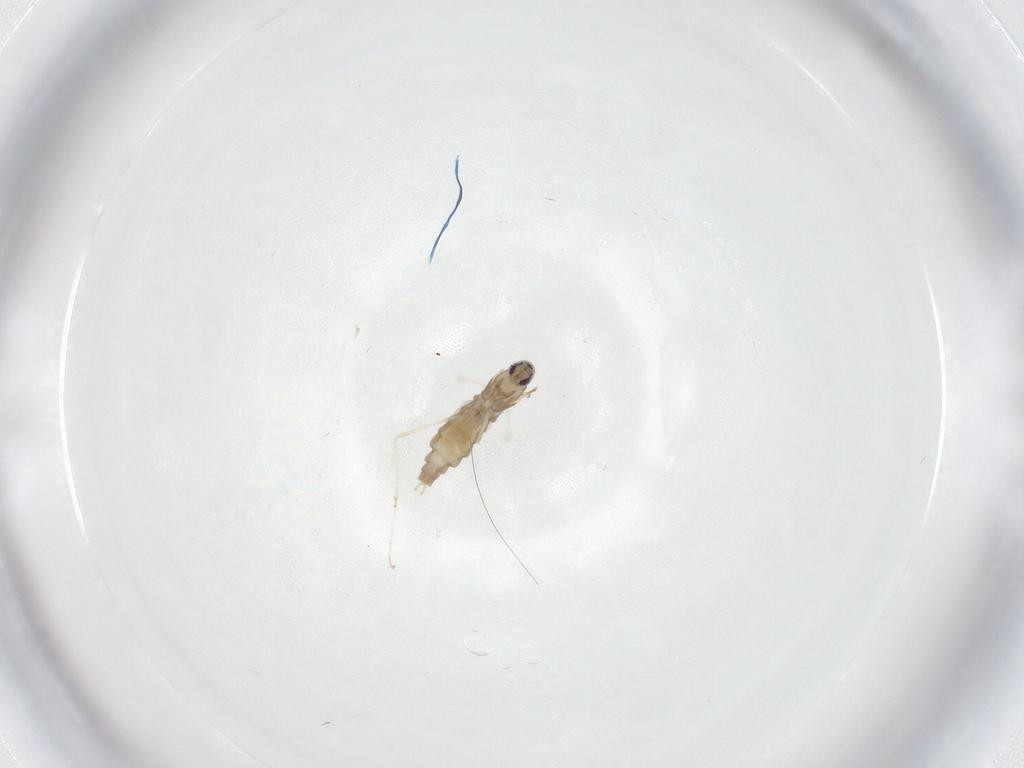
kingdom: Animalia
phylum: Arthropoda
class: Insecta
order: Diptera
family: Cecidomyiidae
